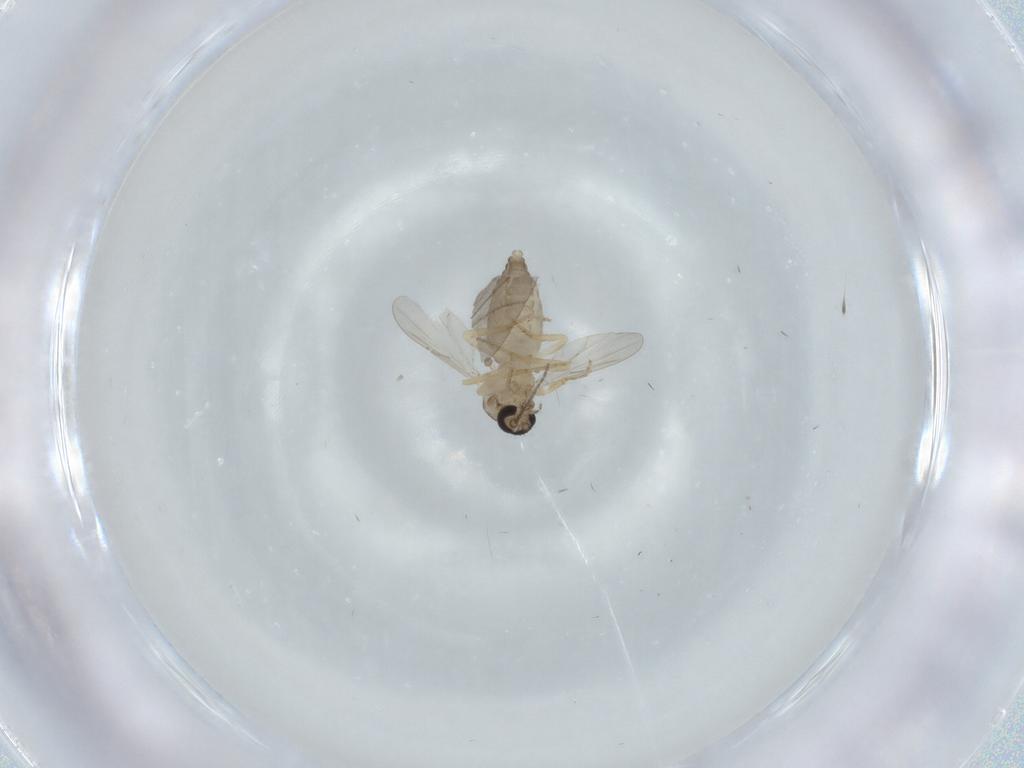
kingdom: Animalia
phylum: Arthropoda
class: Insecta
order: Diptera
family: Ceratopogonidae
